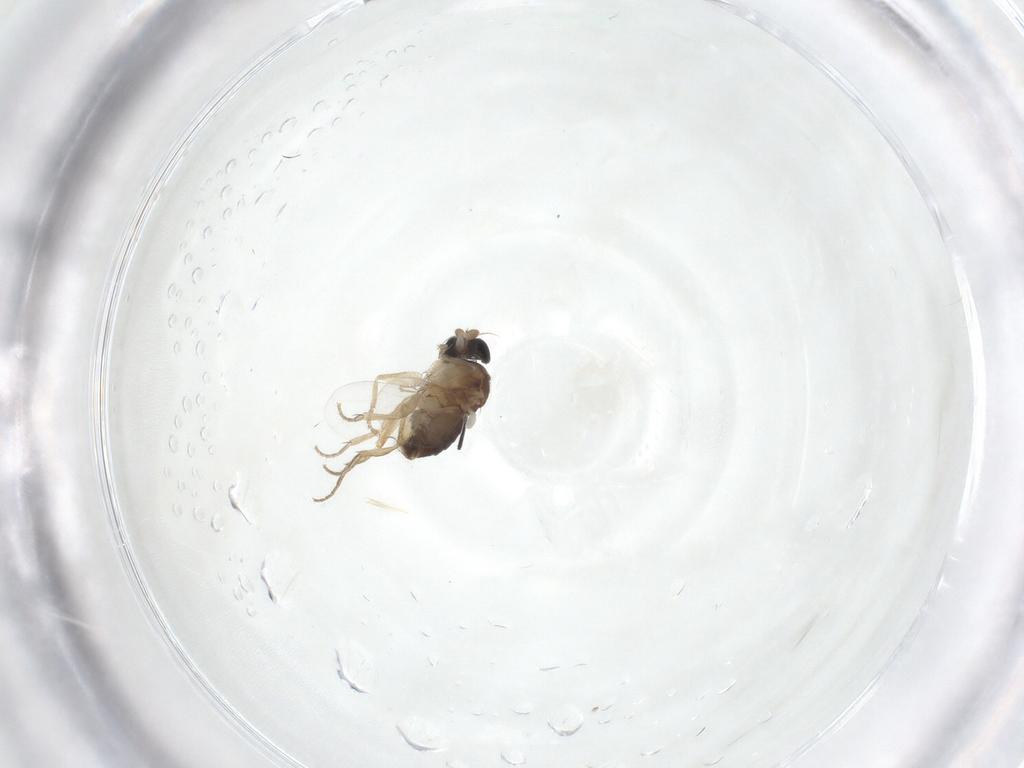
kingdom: Animalia
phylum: Arthropoda
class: Insecta
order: Diptera
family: Phoridae
